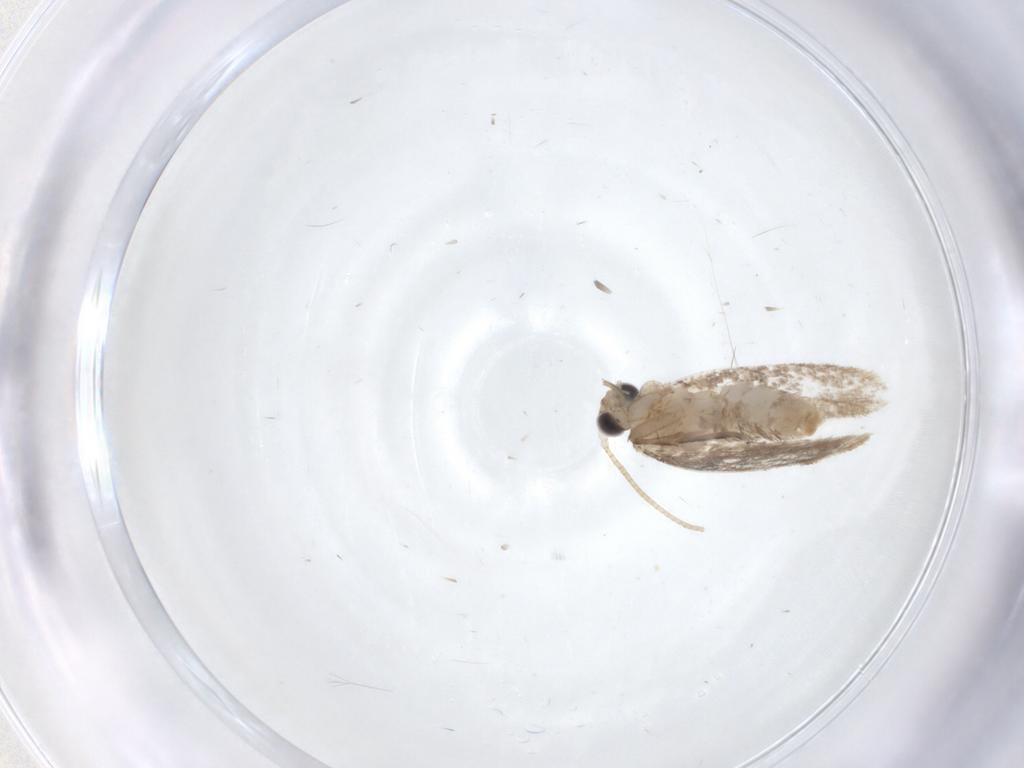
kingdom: Animalia
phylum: Arthropoda
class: Insecta
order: Lepidoptera
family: Dryadaulidae
